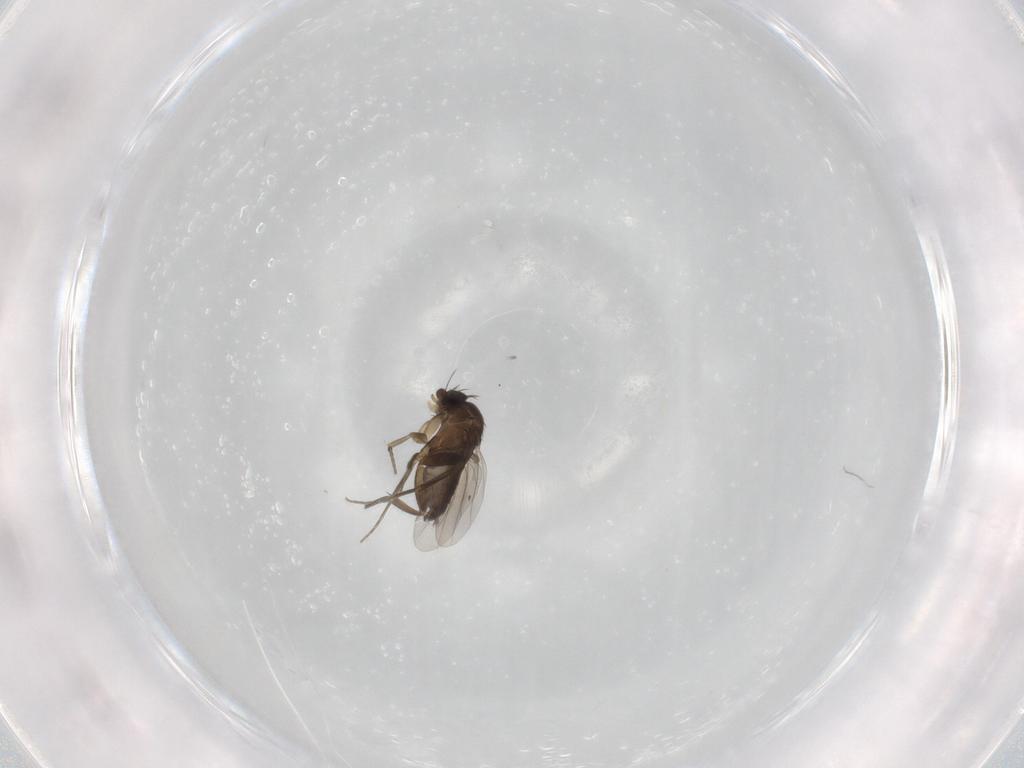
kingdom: Animalia
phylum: Arthropoda
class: Insecta
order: Diptera
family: Phoridae
